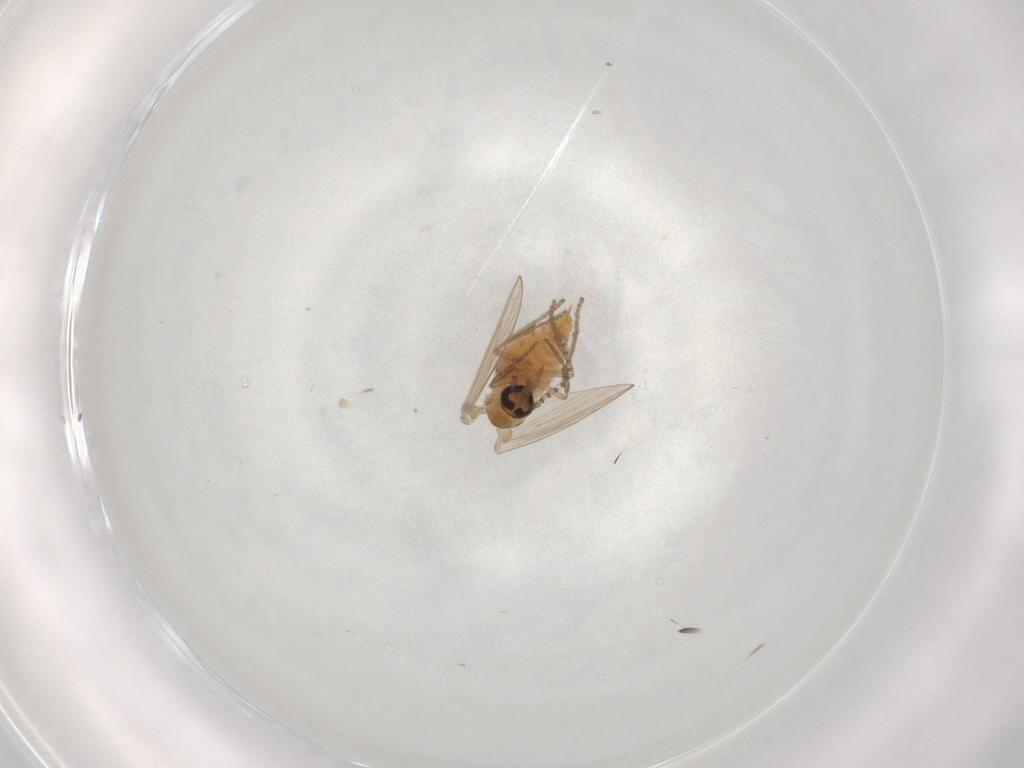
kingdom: Animalia
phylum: Arthropoda
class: Insecta
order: Diptera
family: Psychodidae
